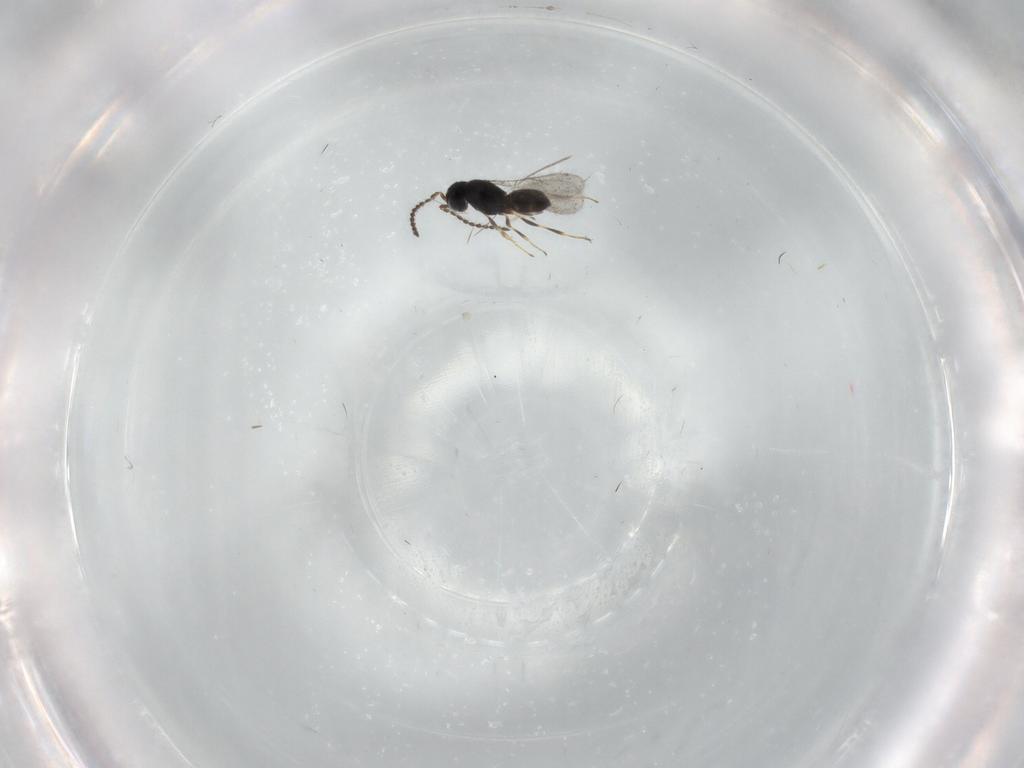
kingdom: Animalia
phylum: Arthropoda
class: Insecta
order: Hymenoptera
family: Scelionidae
